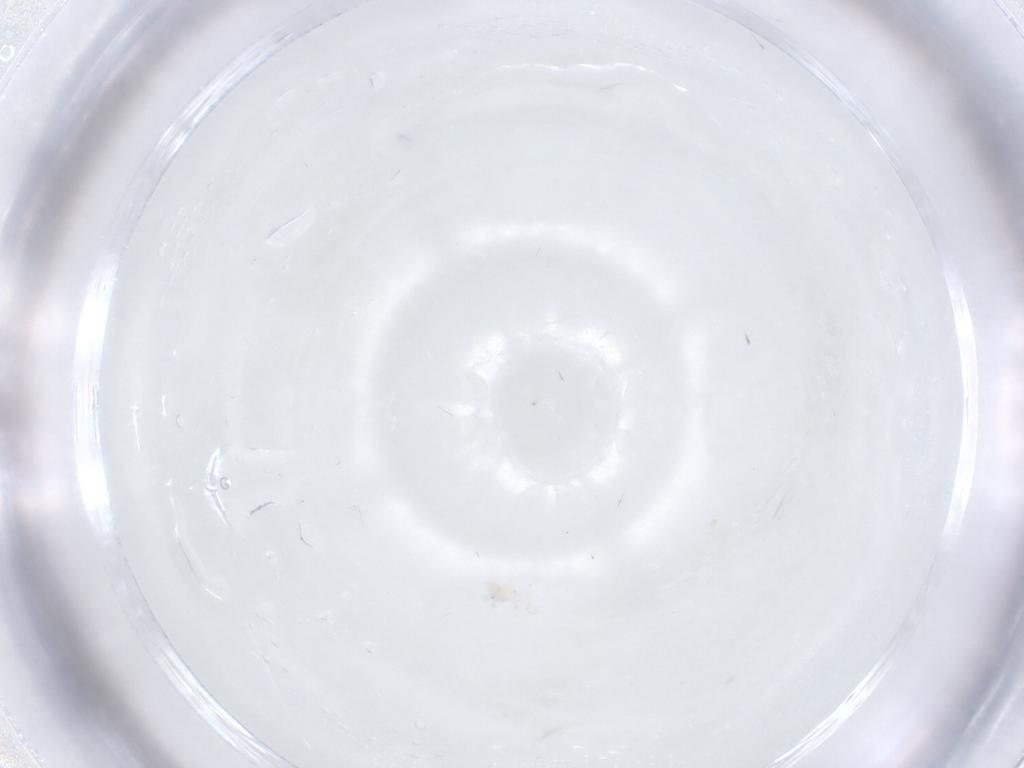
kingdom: Animalia
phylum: Arthropoda
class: Arachnida
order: Trombidiformes
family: Anystidae
